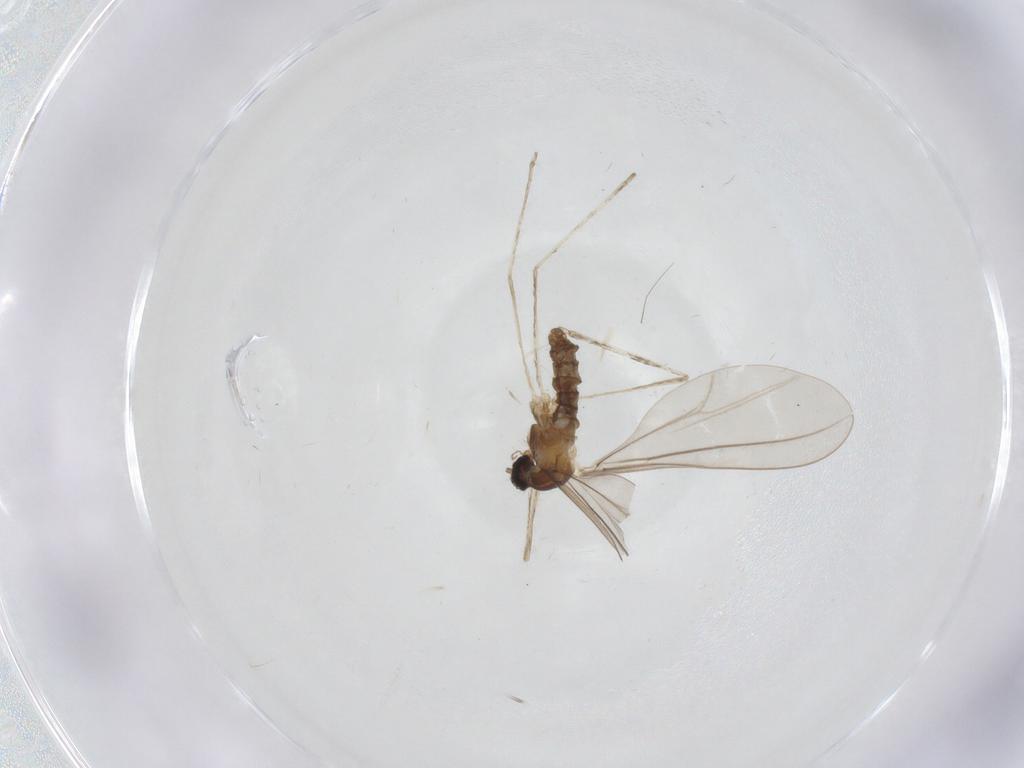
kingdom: Animalia
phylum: Arthropoda
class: Insecta
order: Diptera
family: Cecidomyiidae
